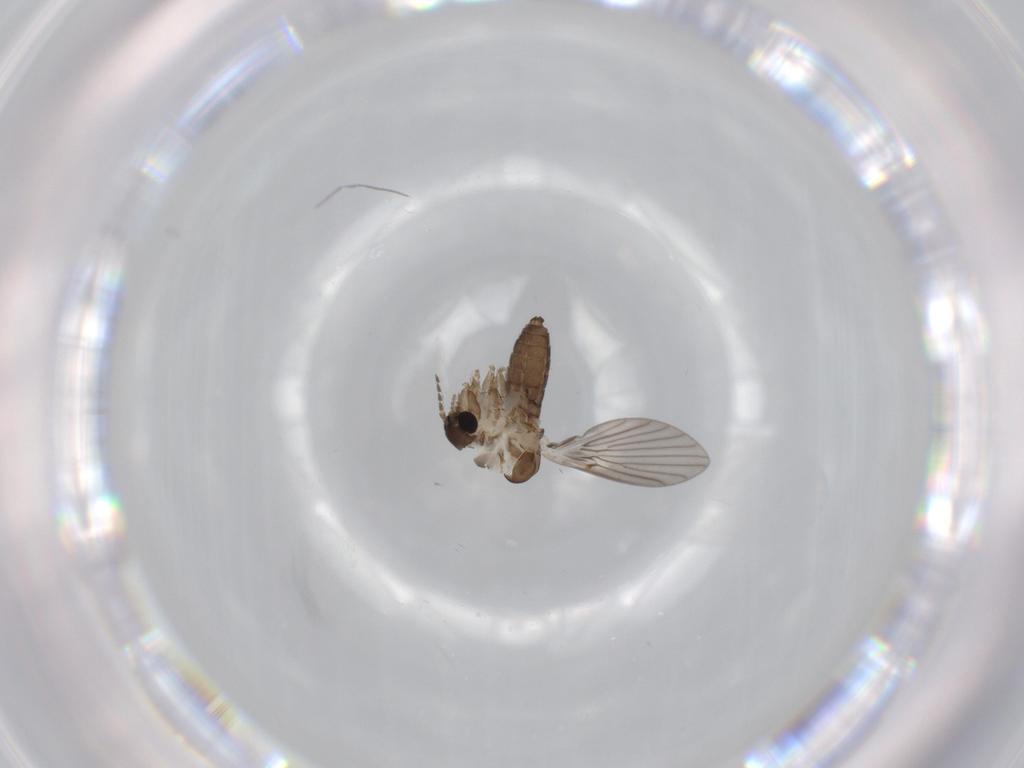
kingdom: Animalia
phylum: Arthropoda
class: Insecta
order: Diptera
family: Psychodidae
